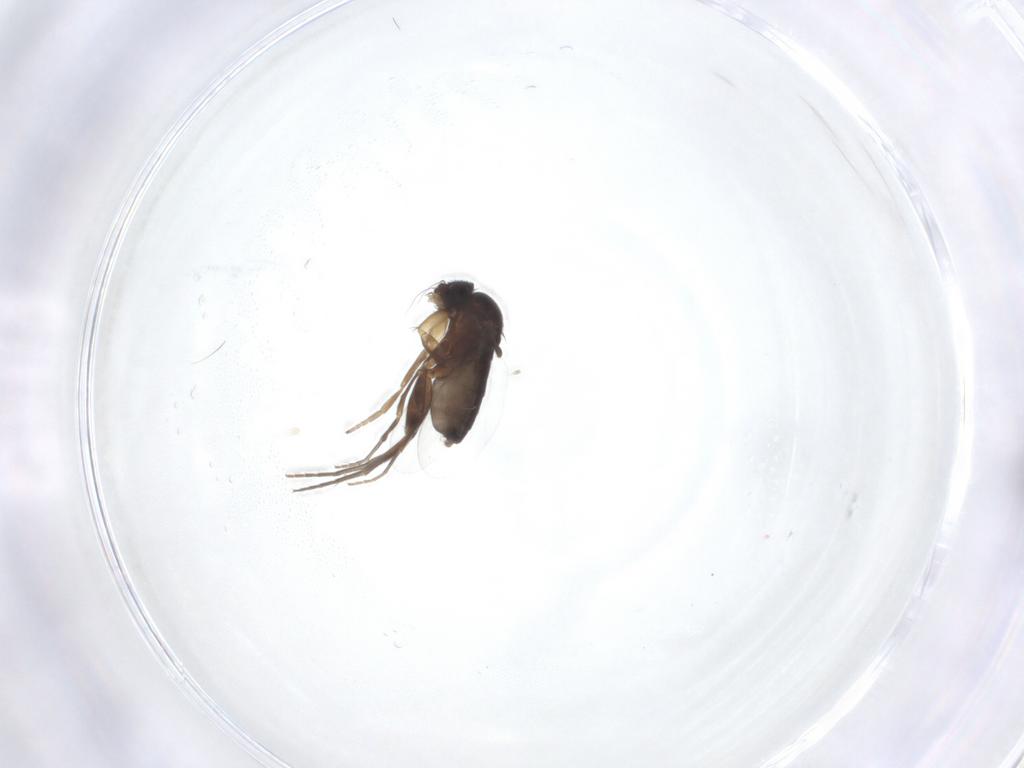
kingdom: Animalia
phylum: Arthropoda
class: Insecta
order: Diptera
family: Phoridae
